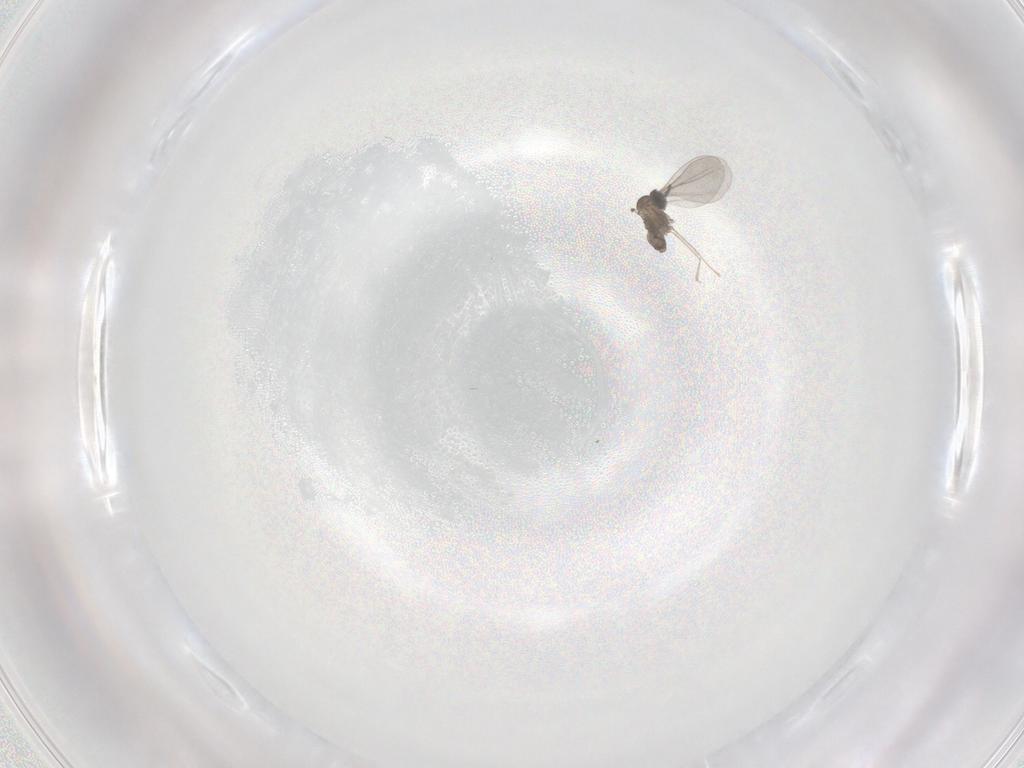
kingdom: Animalia
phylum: Arthropoda
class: Insecta
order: Diptera
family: Cecidomyiidae
